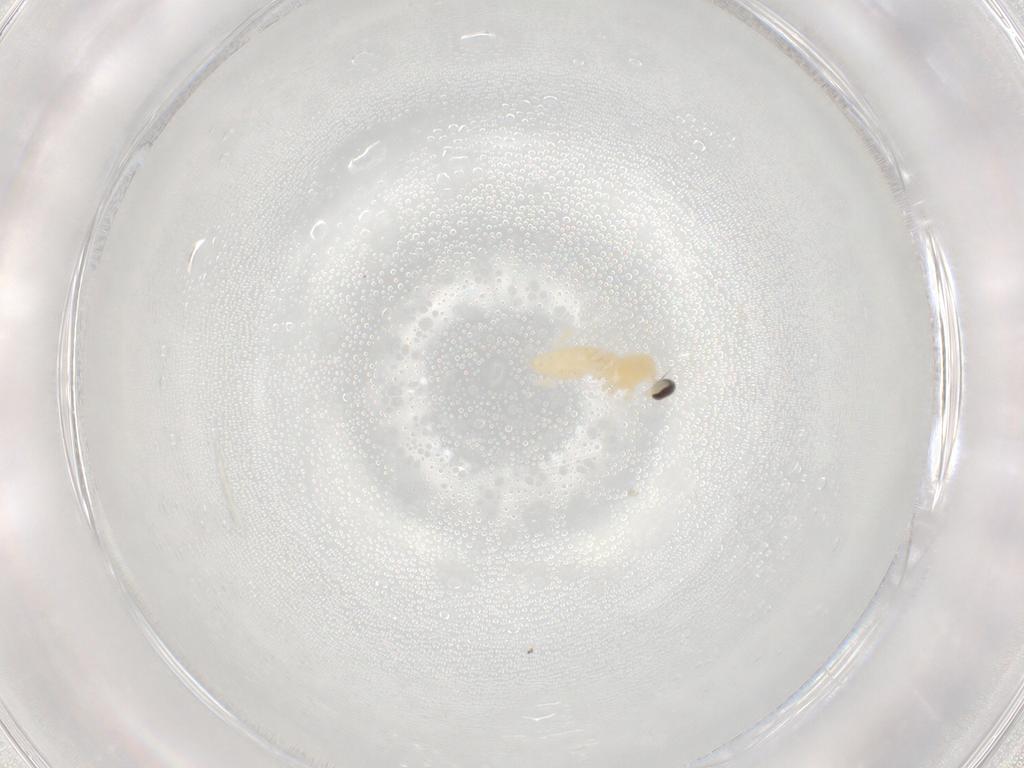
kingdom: Animalia
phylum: Arthropoda
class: Insecta
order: Diptera
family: Cecidomyiidae
